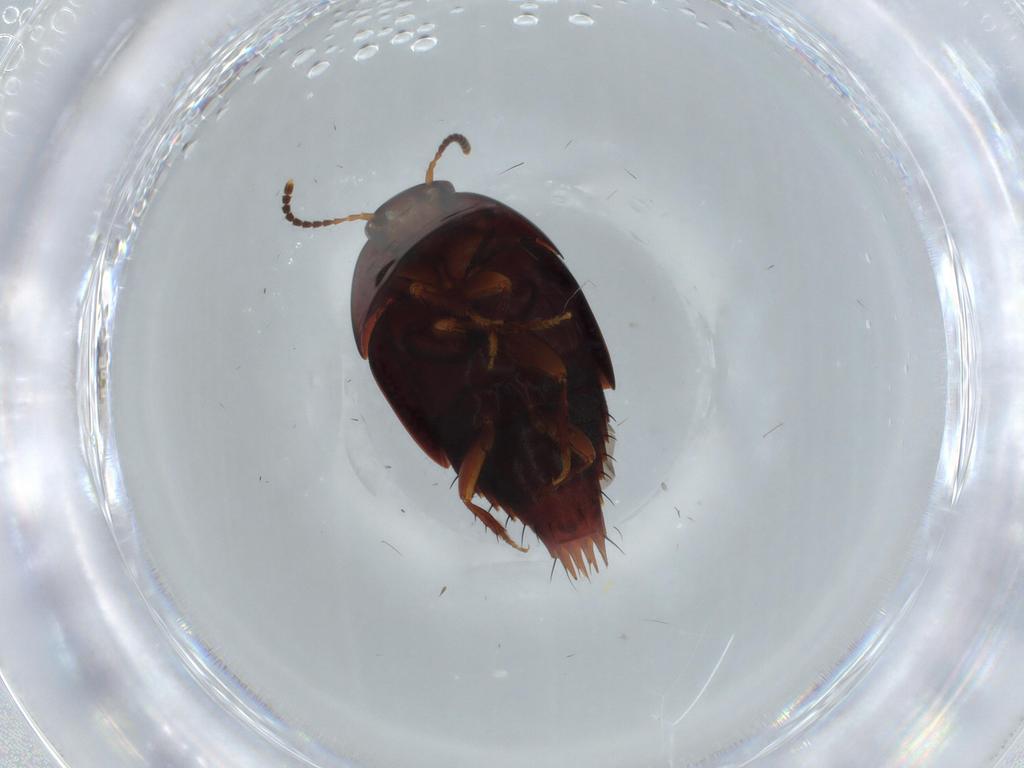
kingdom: Animalia
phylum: Arthropoda
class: Insecta
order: Coleoptera
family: Staphylinidae
